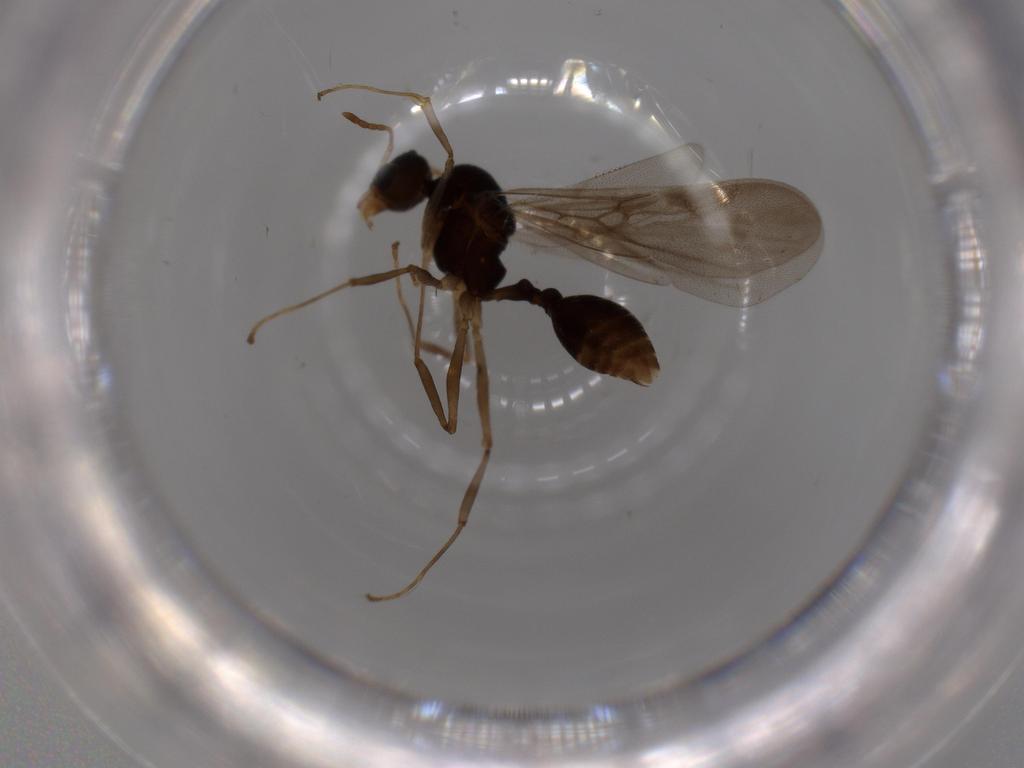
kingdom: Animalia
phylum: Arthropoda
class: Insecta
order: Hymenoptera
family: Formicidae
